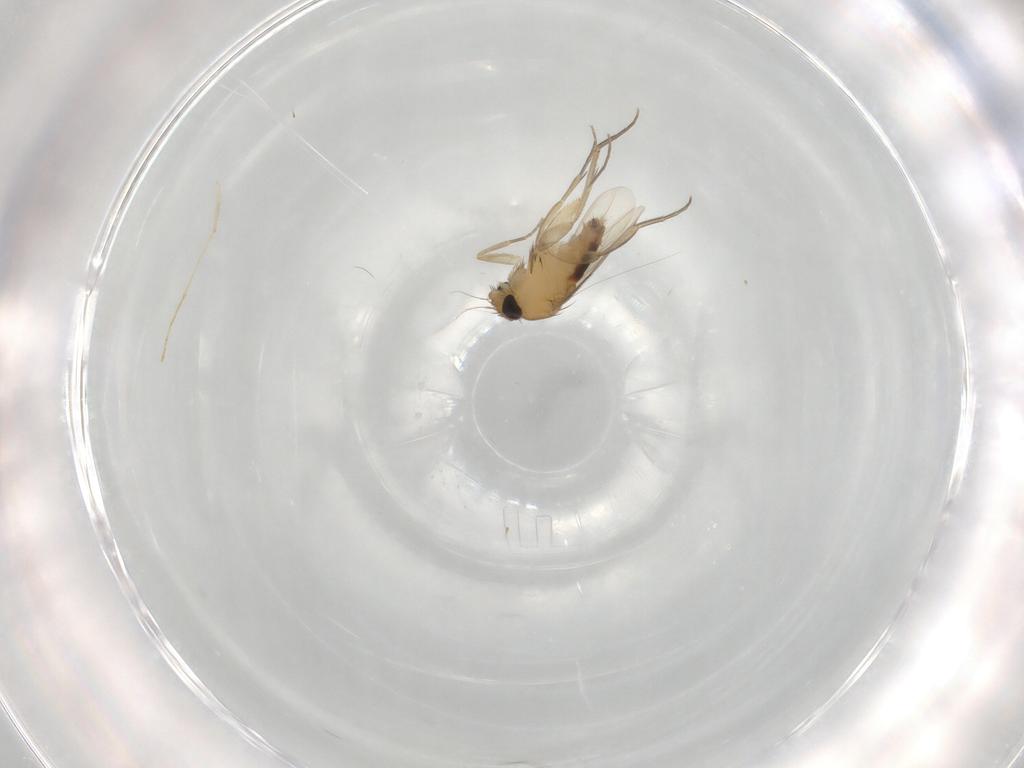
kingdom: Animalia
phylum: Arthropoda
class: Insecta
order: Diptera
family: Phoridae
